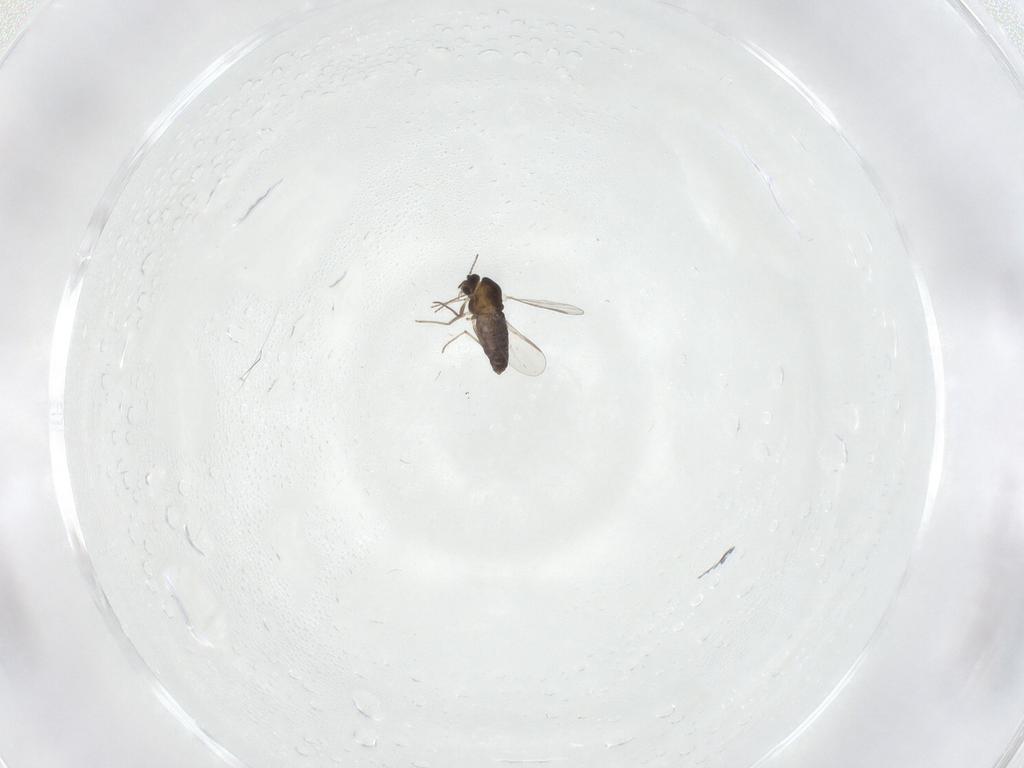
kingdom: Animalia
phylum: Arthropoda
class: Insecta
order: Diptera
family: Chironomidae
